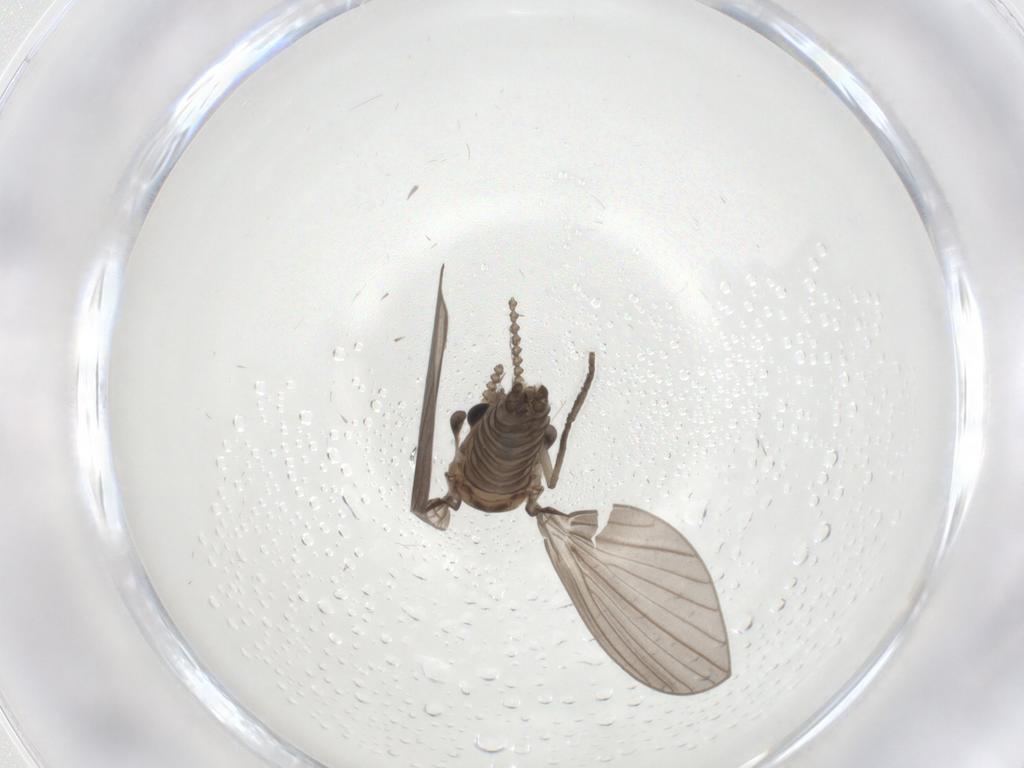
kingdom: Animalia
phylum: Arthropoda
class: Insecta
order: Diptera
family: Psychodidae
